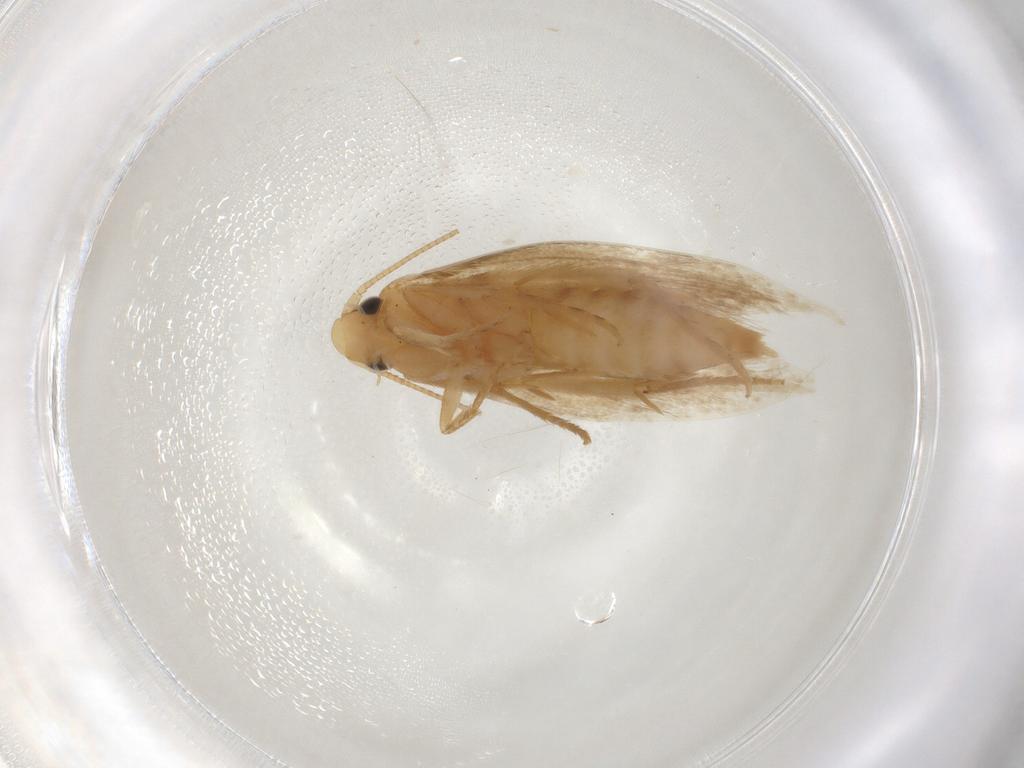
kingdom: Animalia
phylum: Arthropoda
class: Insecta
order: Lepidoptera
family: Tineidae
